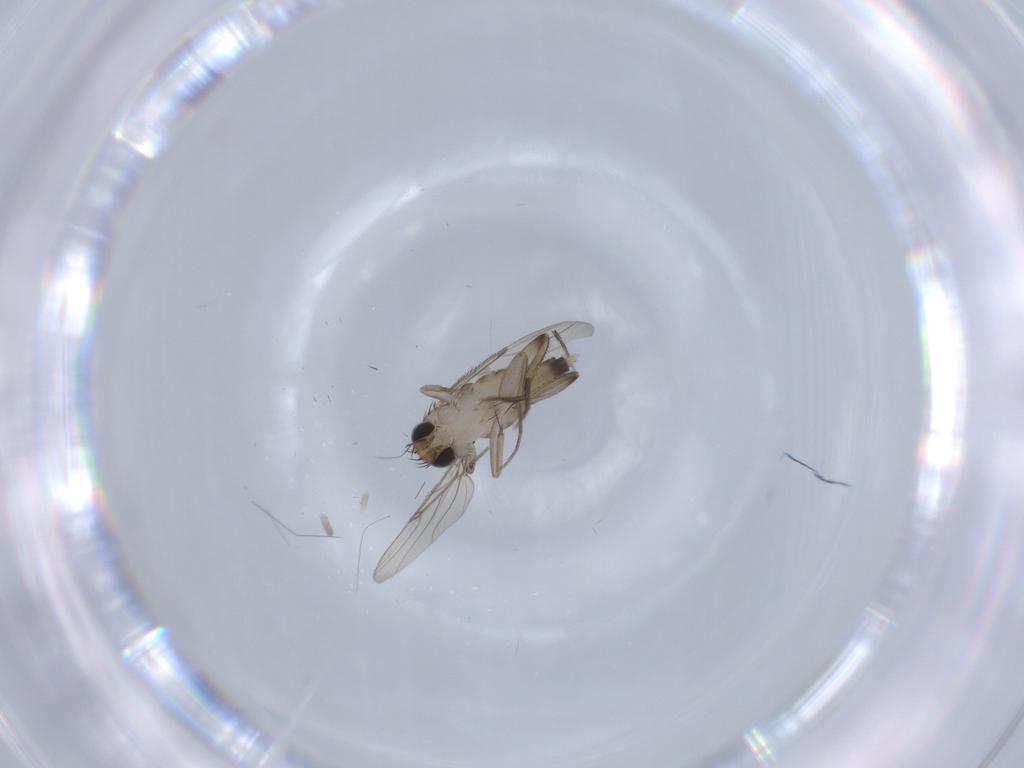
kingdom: Animalia
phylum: Arthropoda
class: Insecta
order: Diptera
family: Phoridae
